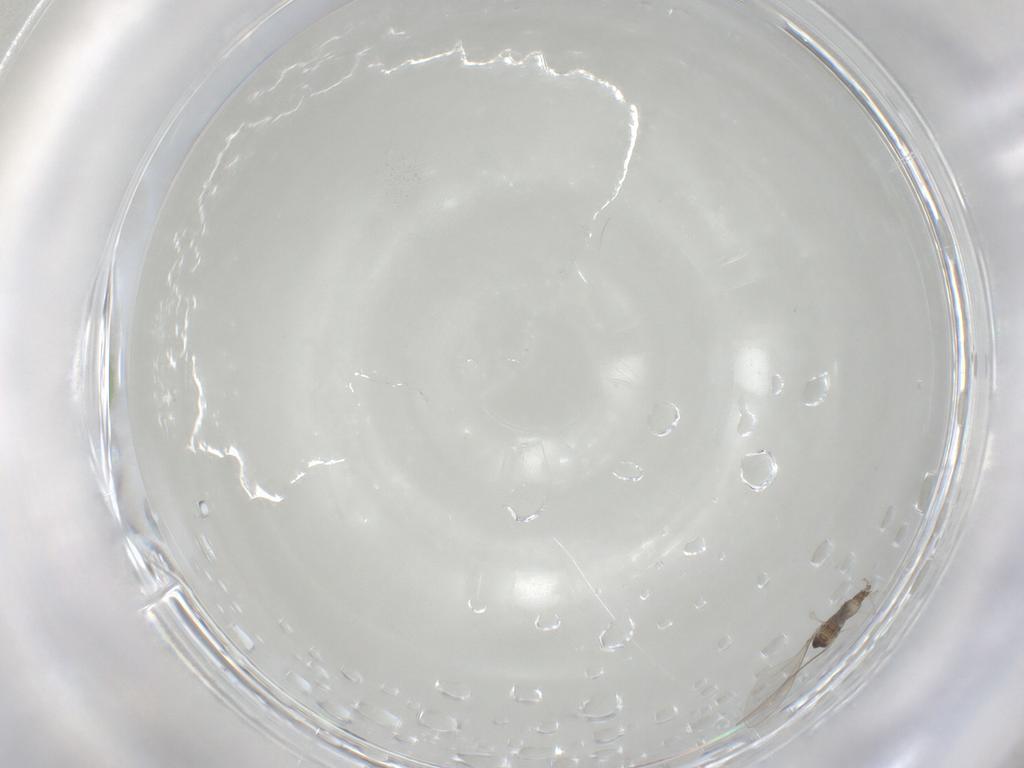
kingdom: Animalia
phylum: Arthropoda
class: Insecta
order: Diptera
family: Cecidomyiidae
